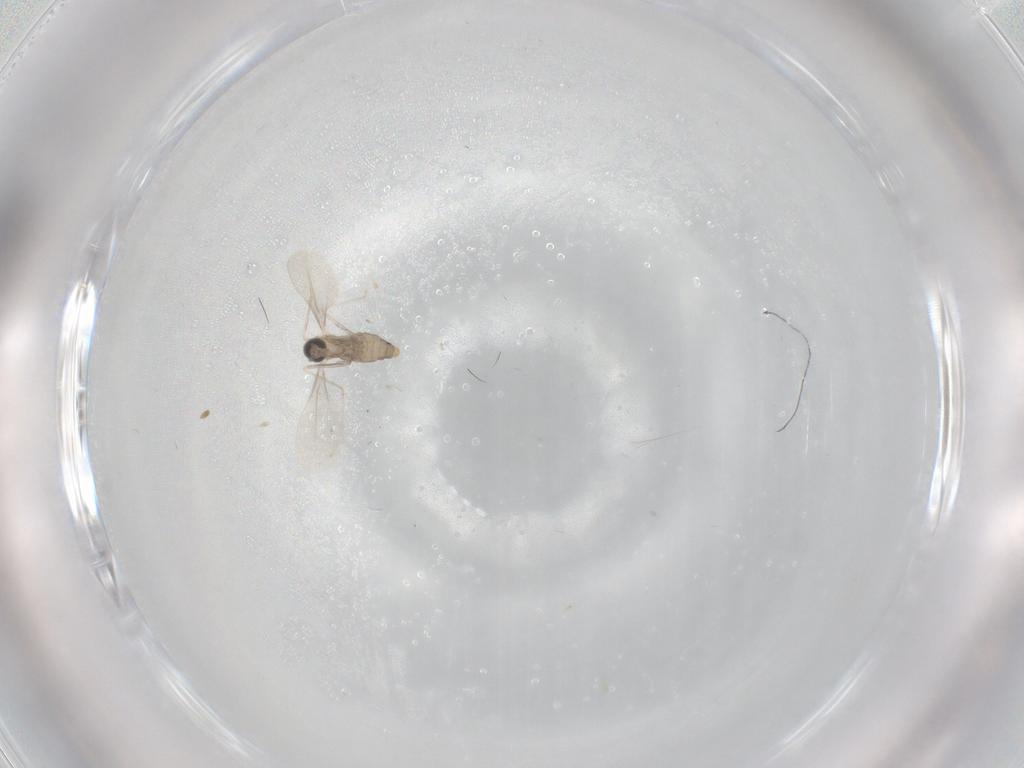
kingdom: Animalia
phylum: Arthropoda
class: Insecta
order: Diptera
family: Cecidomyiidae
